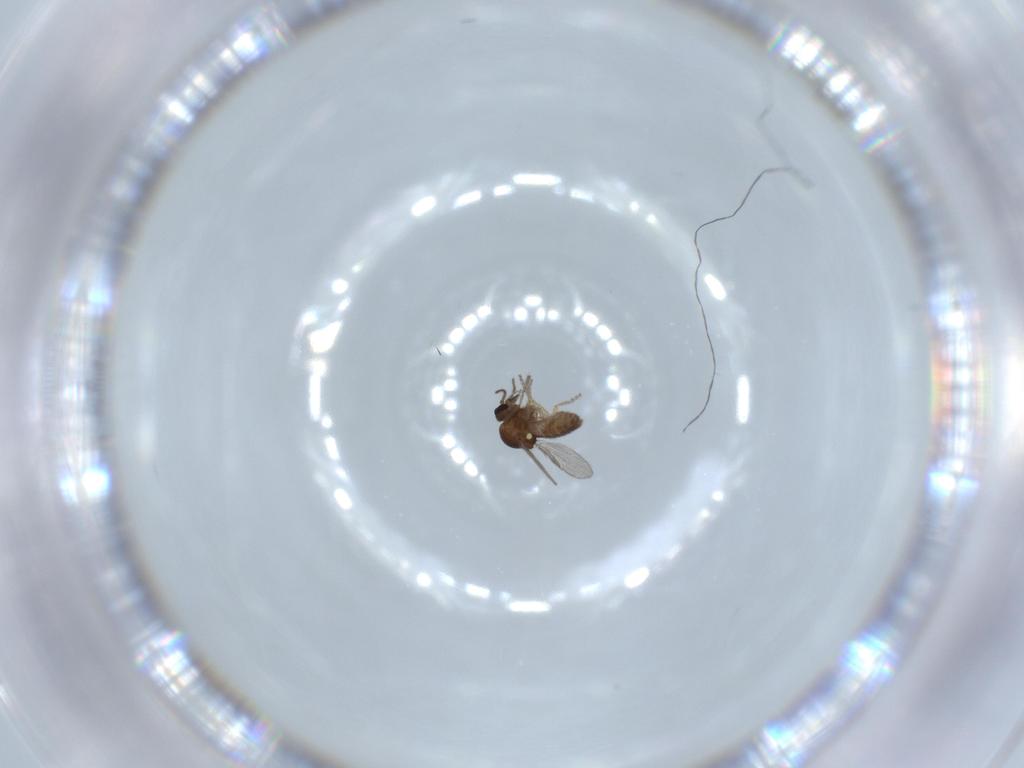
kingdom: Animalia
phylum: Arthropoda
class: Insecta
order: Diptera
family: Ceratopogonidae
